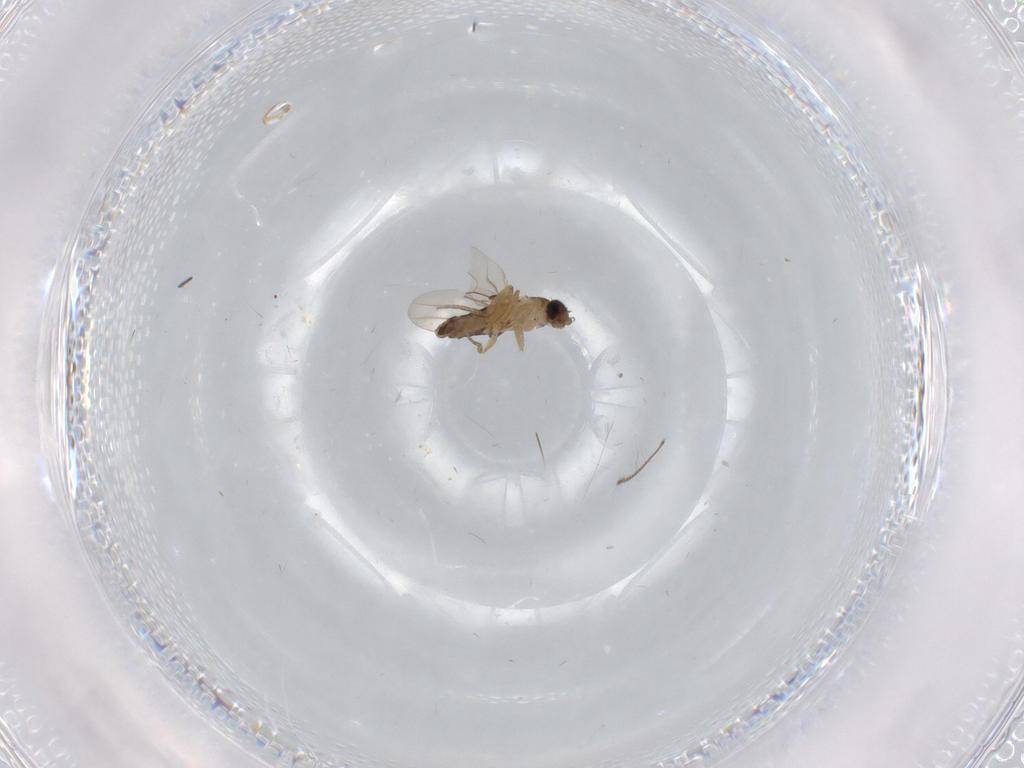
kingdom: Animalia
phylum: Arthropoda
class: Insecta
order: Diptera
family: Chironomidae
